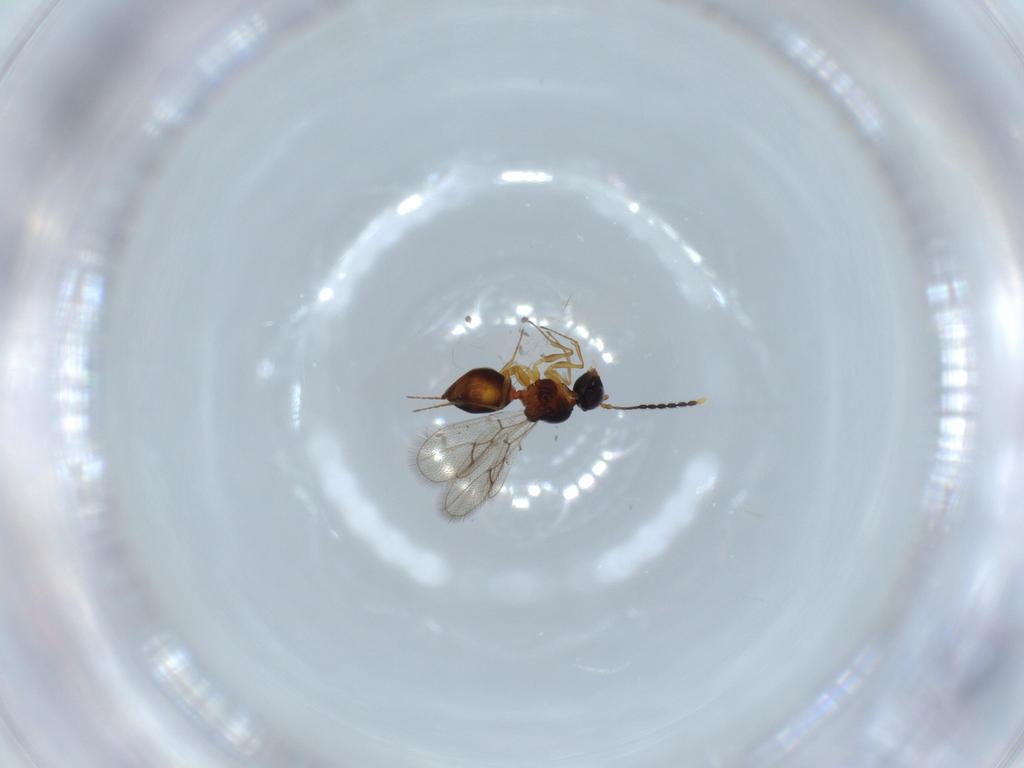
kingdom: Animalia
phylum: Arthropoda
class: Insecta
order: Hymenoptera
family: Figitidae
